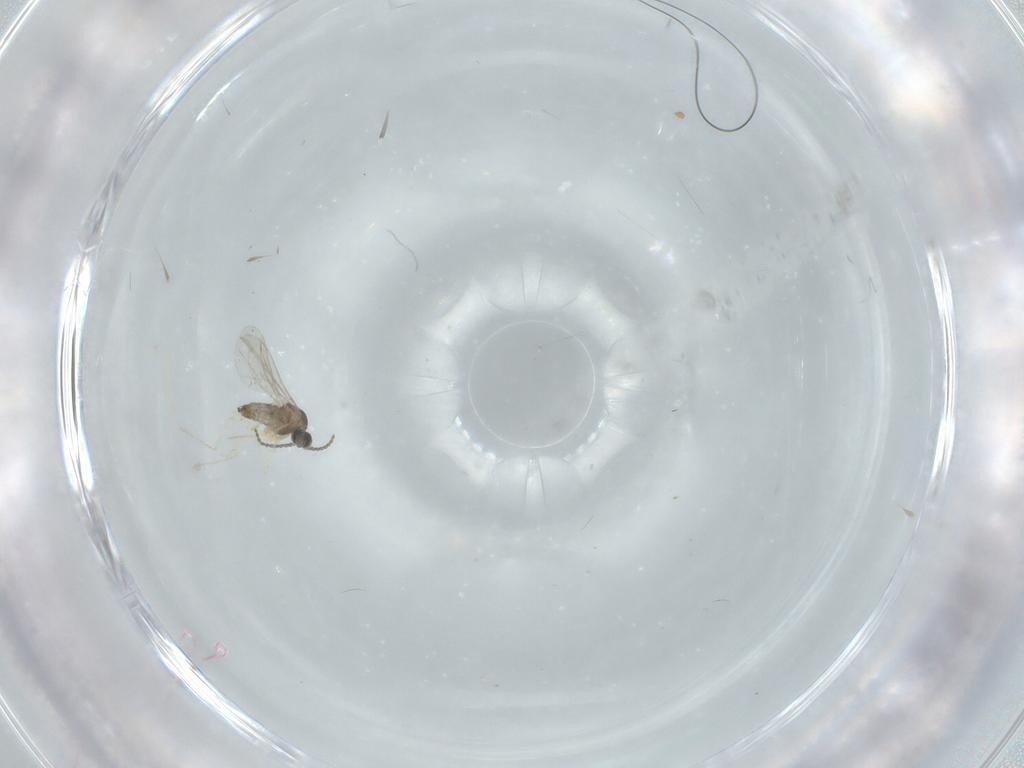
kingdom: Animalia
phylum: Arthropoda
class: Insecta
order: Diptera
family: Cecidomyiidae
